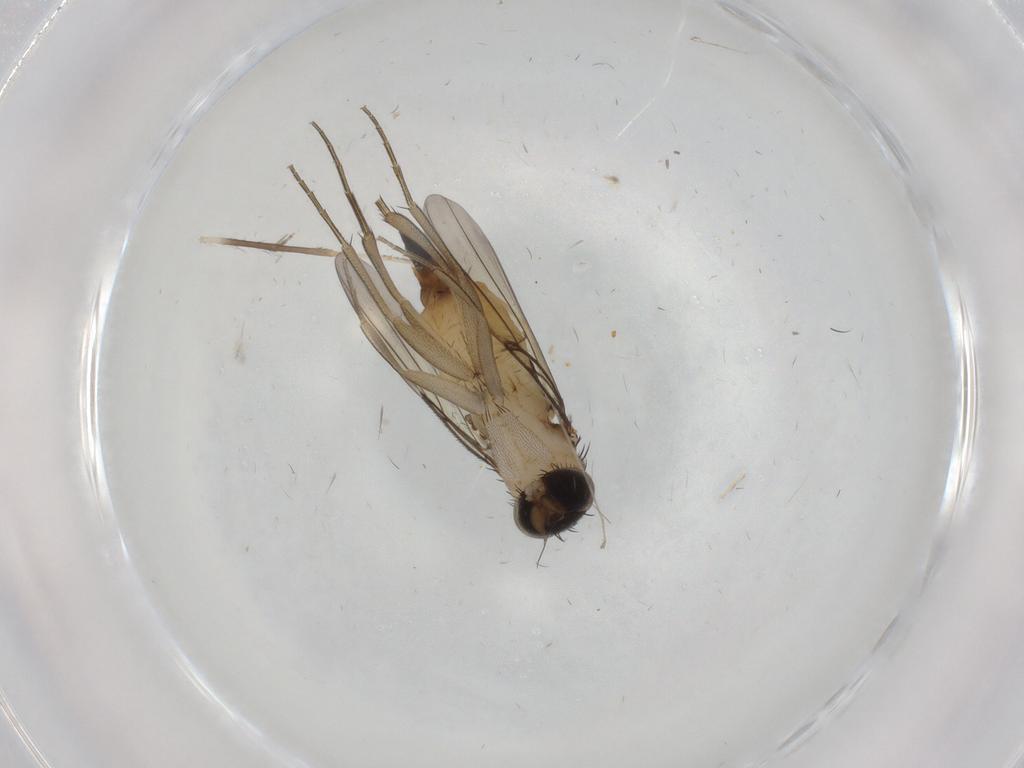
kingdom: Animalia
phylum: Arthropoda
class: Insecta
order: Diptera
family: Phoridae
